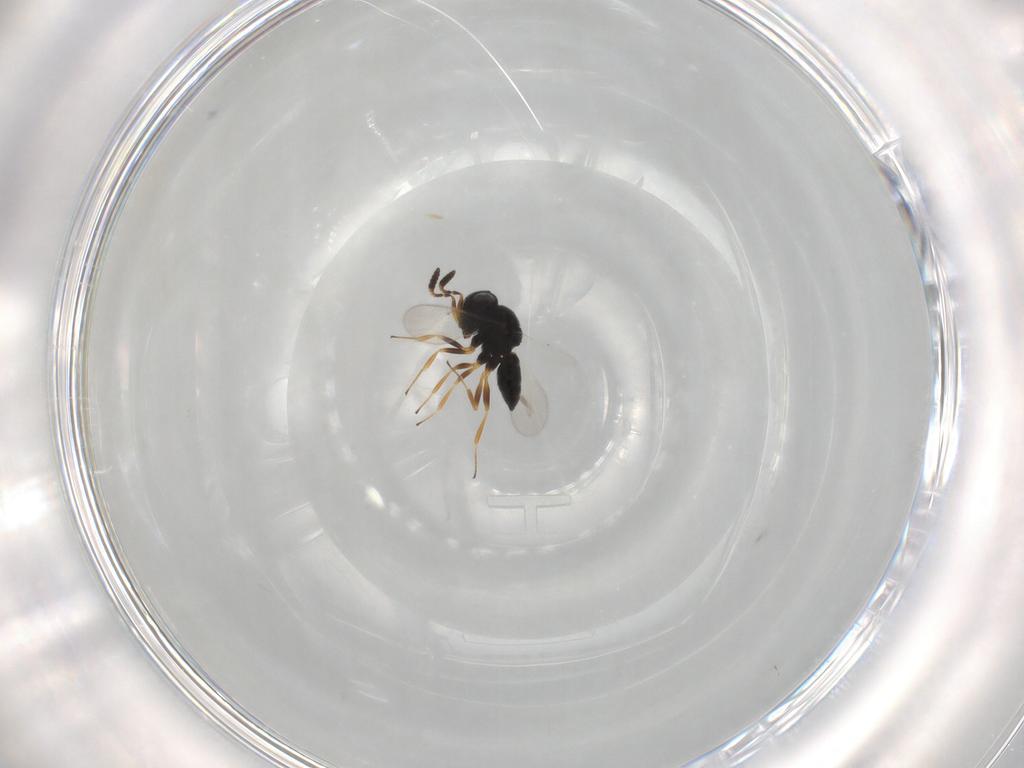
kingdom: Animalia
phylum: Arthropoda
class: Insecta
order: Hymenoptera
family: Scelionidae
